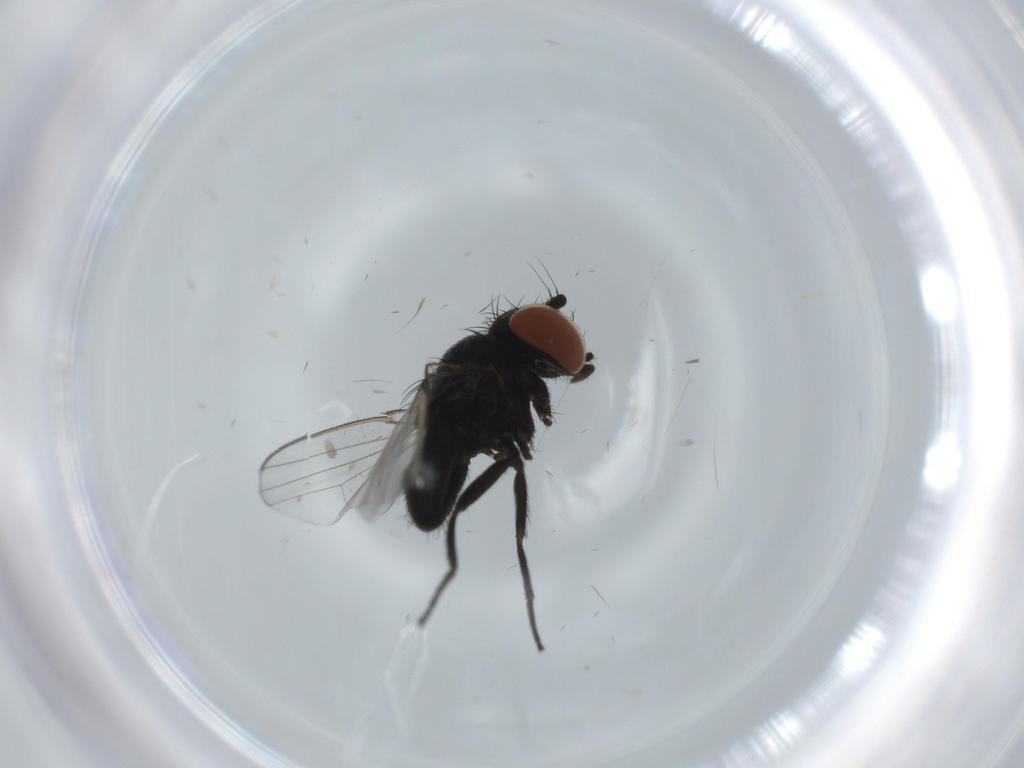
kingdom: Animalia
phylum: Arthropoda
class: Insecta
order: Diptera
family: Milichiidae
